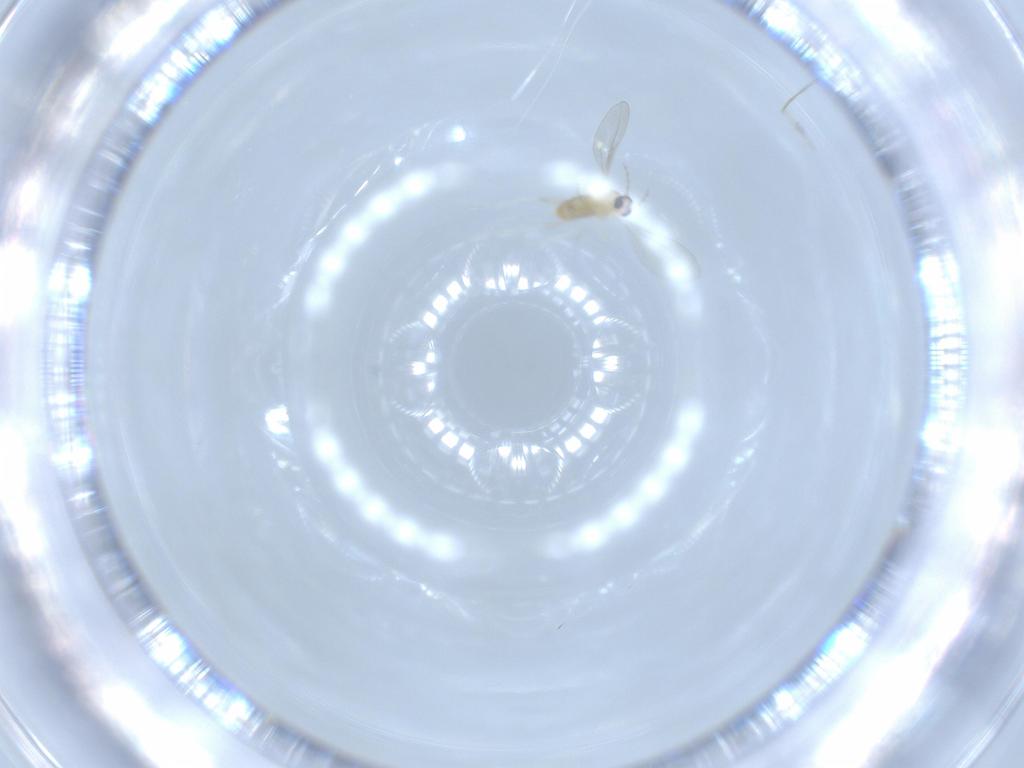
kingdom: Animalia
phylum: Arthropoda
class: Insecta
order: Diptera
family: Cecidomyiidae
